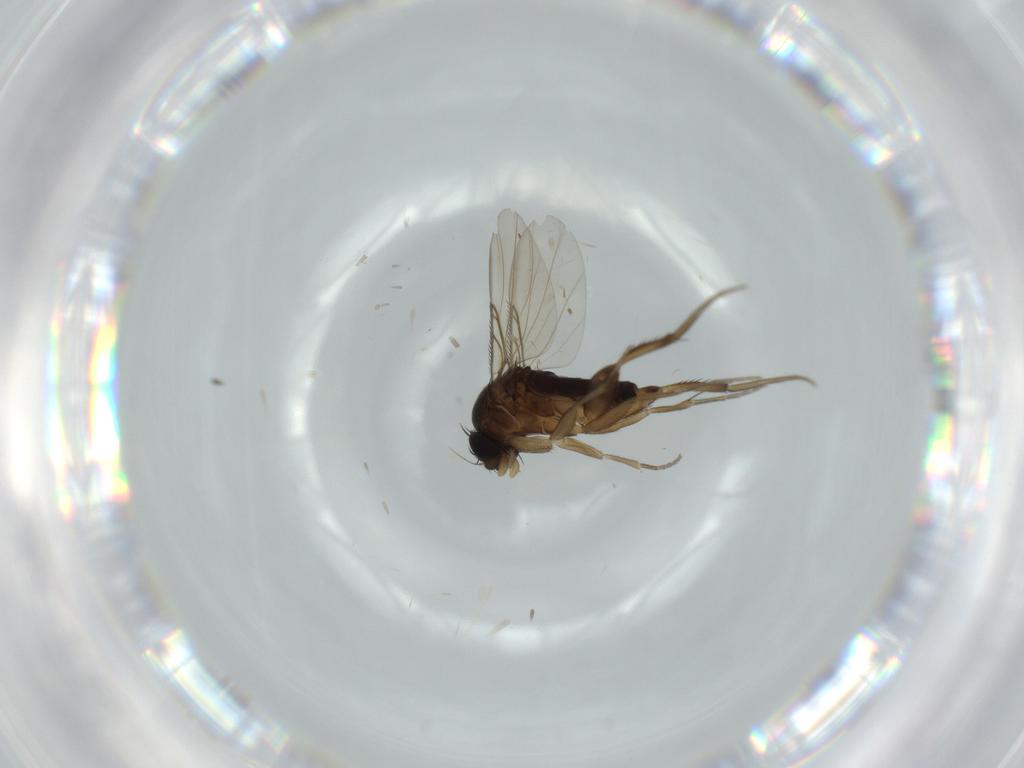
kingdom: Animalia
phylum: Arthropoda
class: Insecta
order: Diptera
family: Phoridae
